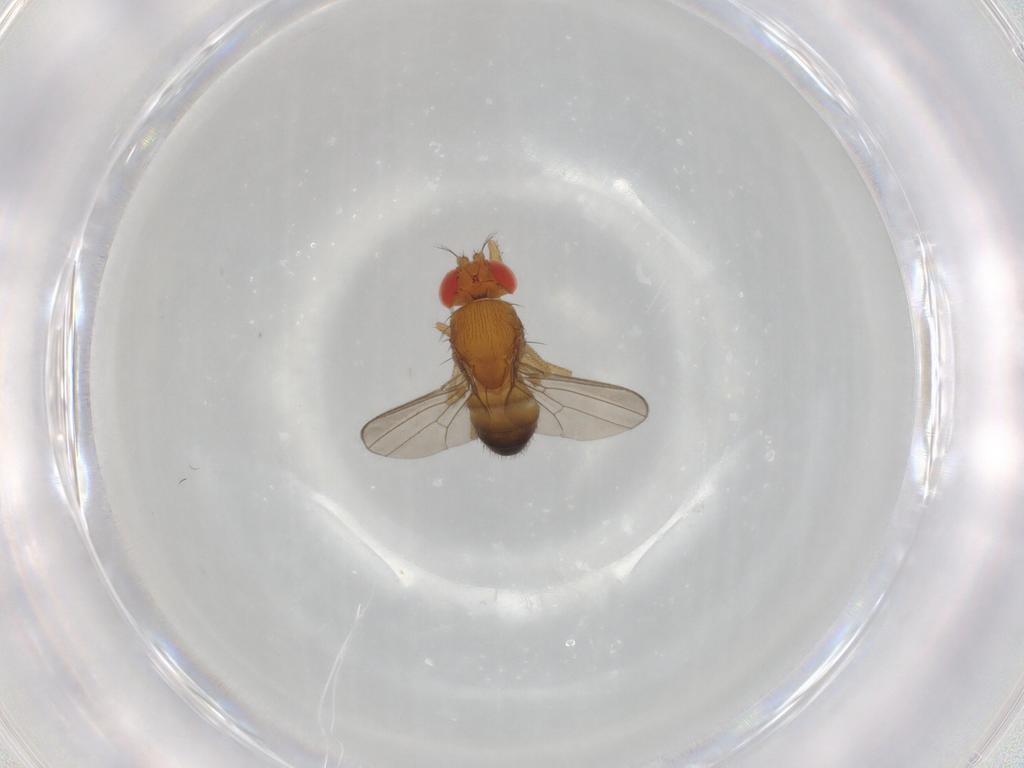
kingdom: Animalia
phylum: Arthropoda
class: Insecta
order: Diptera
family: Drosophilidae
